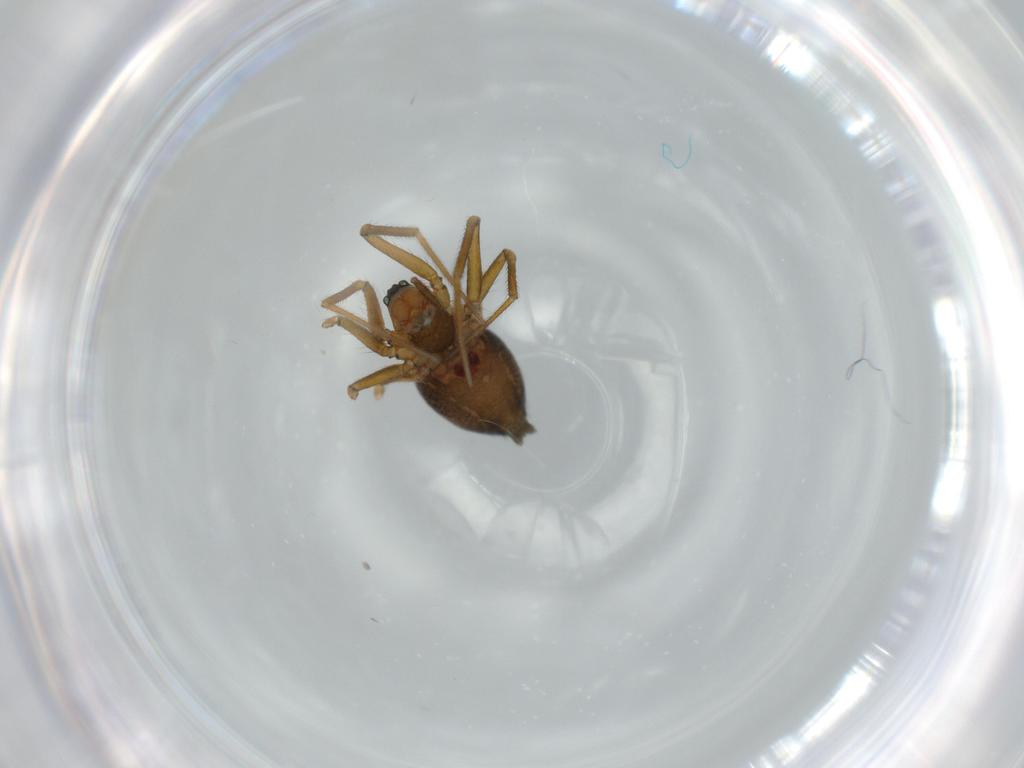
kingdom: Animalia
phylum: Arthropoda
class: Arachnida
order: Araneae
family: Linyphiidae
